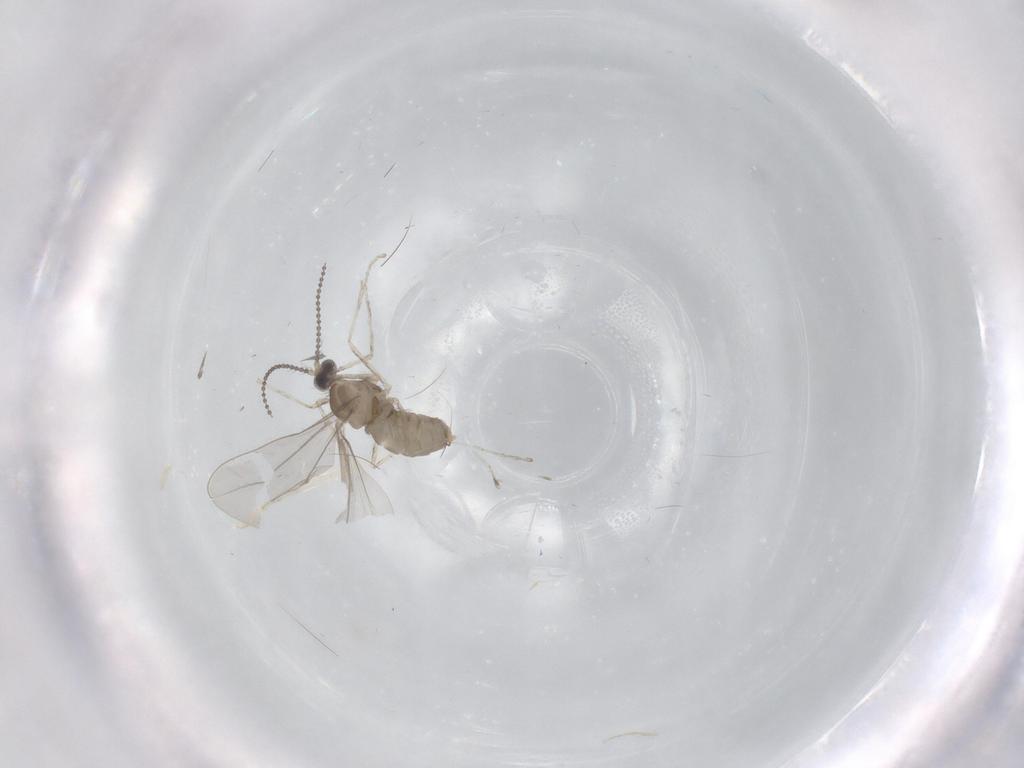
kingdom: Animalia
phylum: Arthropoda
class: Insecta
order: Diptera
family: Cecidomyiidae
